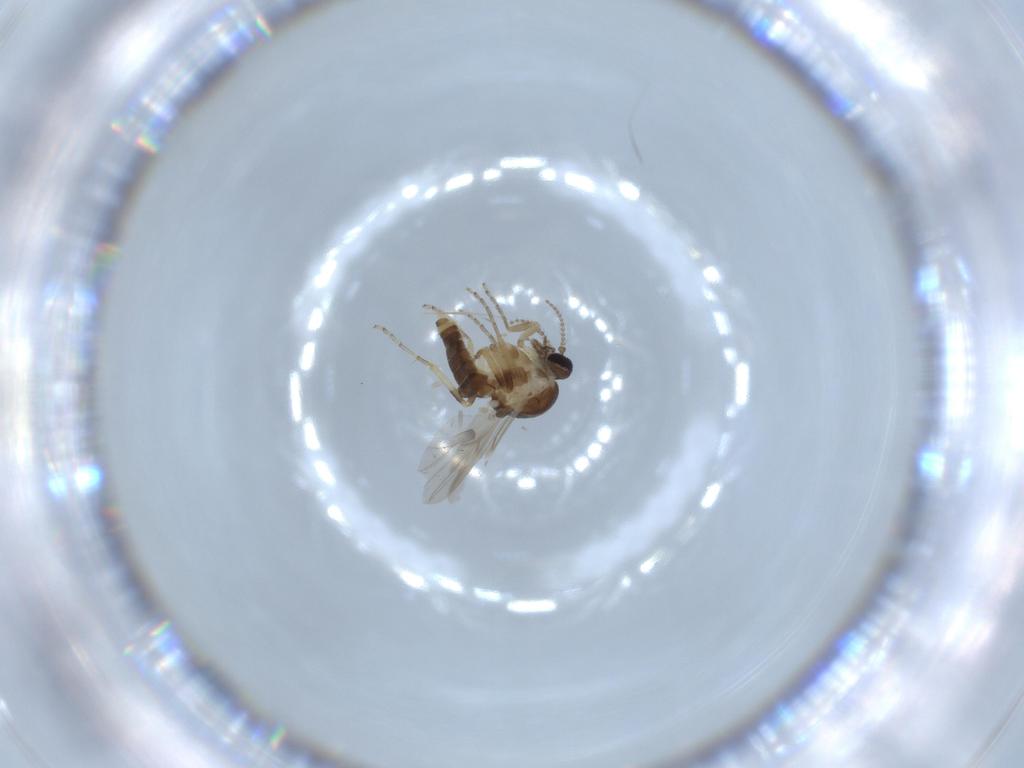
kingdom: Animalia
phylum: Arthropoda
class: Insecta
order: Diptera
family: Ceratopogonidae
